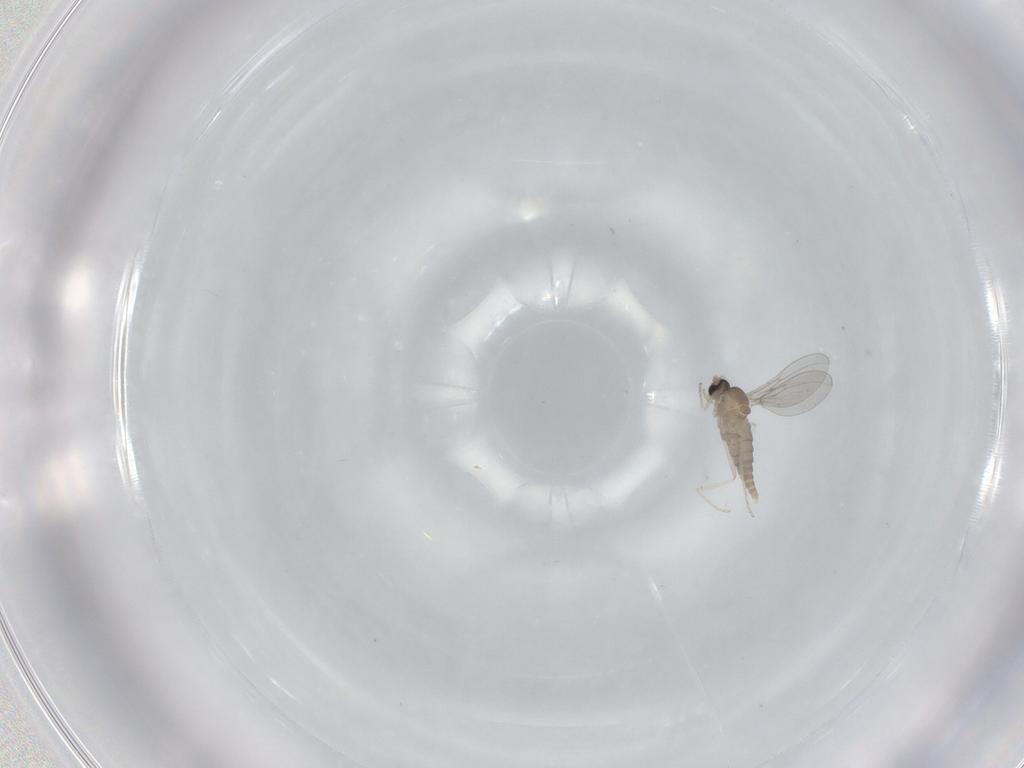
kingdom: Animalia
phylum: Arthropoda
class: Insecta
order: Diptera
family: Cecidomyiidae
